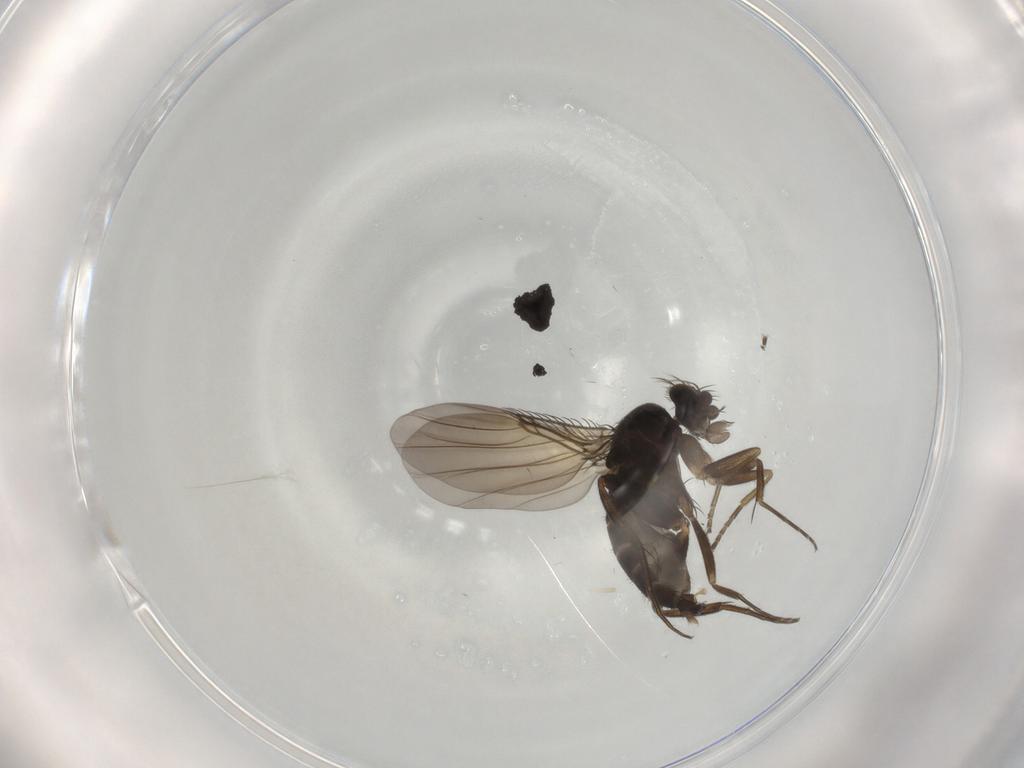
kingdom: Animalia
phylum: Arthropoda
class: Insecta
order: Diptera
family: Phoridae
